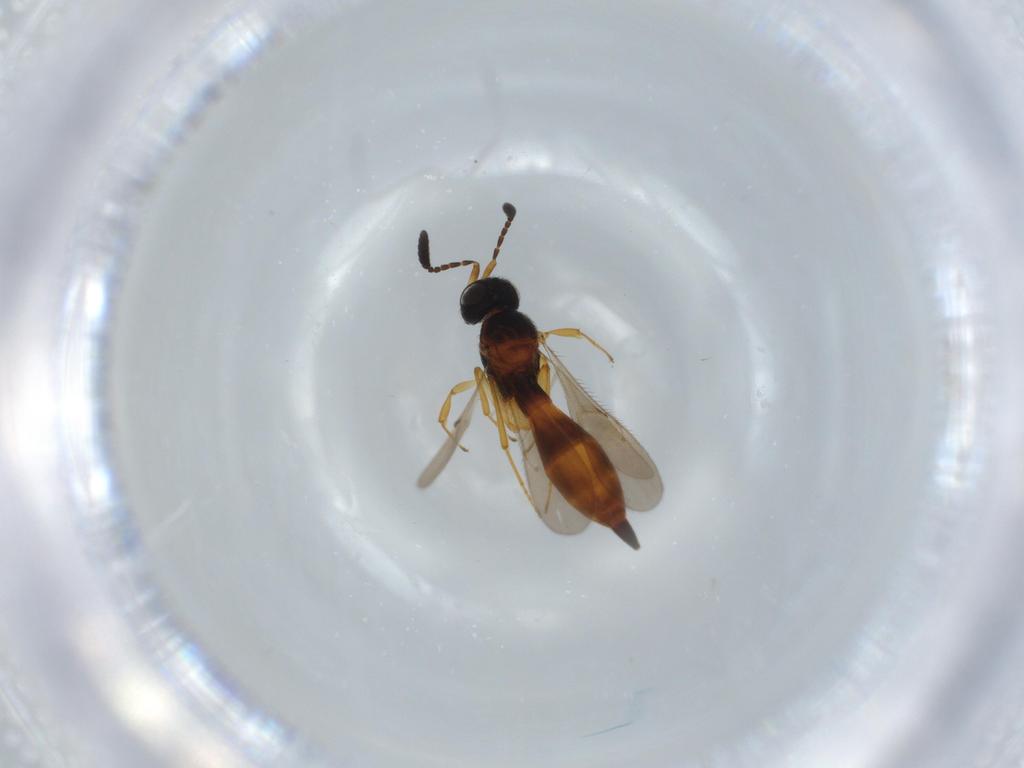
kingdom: Animalia
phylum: Arthropoda
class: Insecta
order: Hymenoptera
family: Scelionidae
